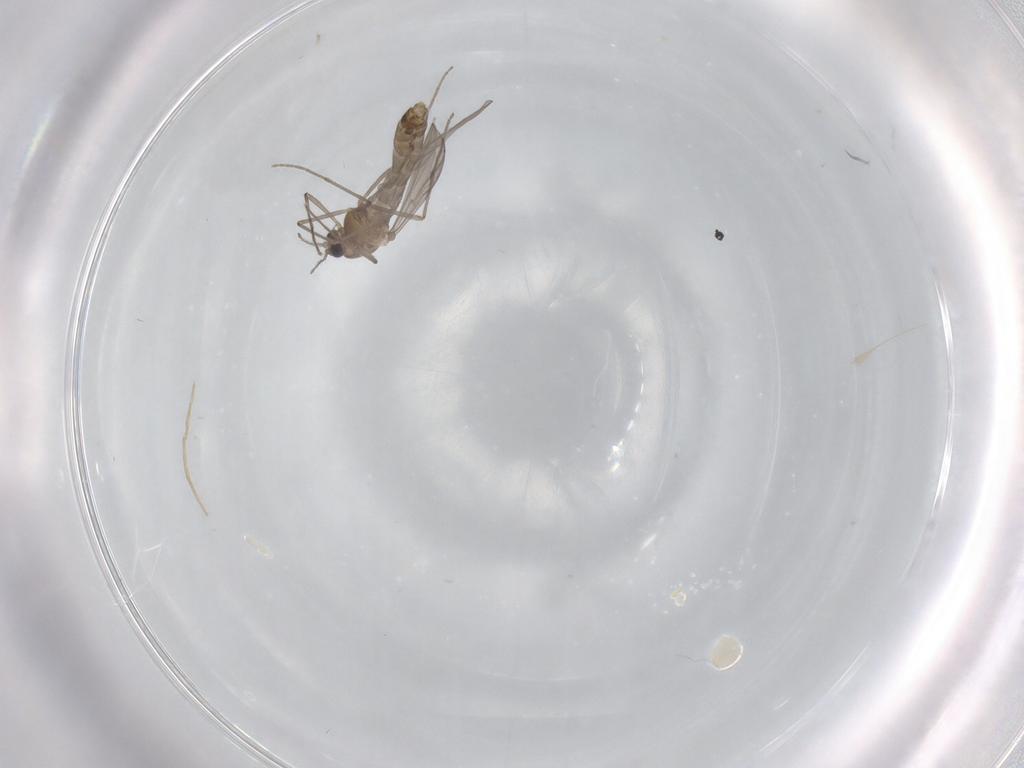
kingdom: Animalia
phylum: Arthropoda
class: Insecta
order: Diptera
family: Chironomidae
